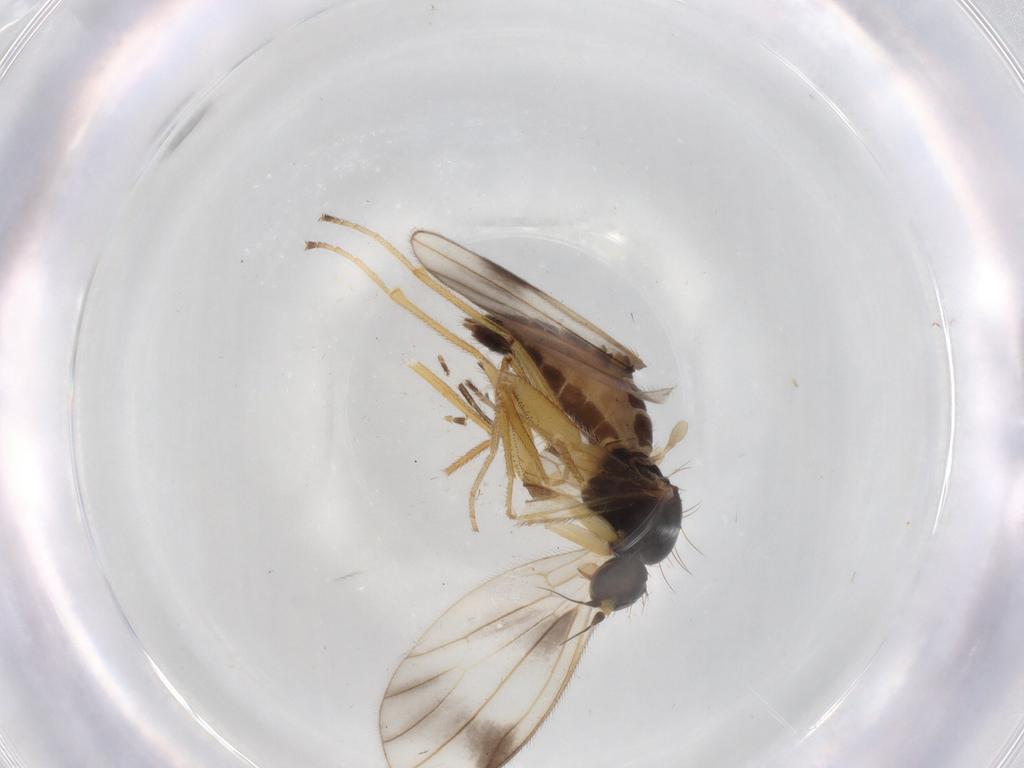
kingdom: Animalia
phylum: Arthropoda
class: Insecta
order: Diptera
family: Empididae
